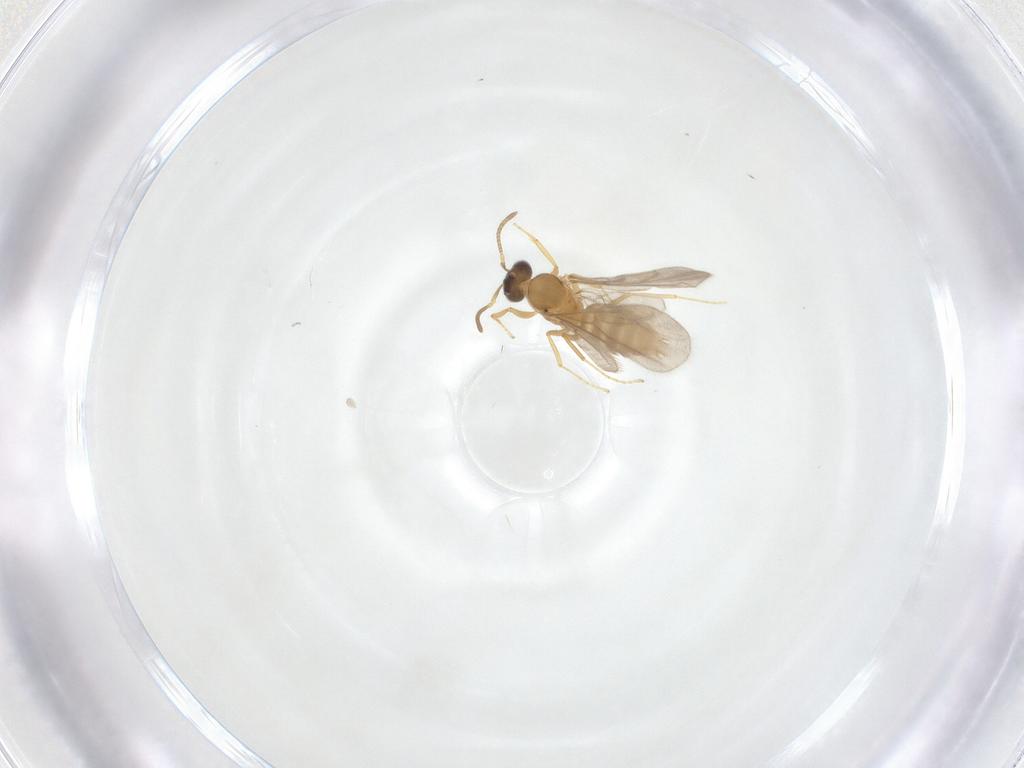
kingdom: Animalia
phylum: Arthropoda
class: Insecta
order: Hymenoptera
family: Formicidae
